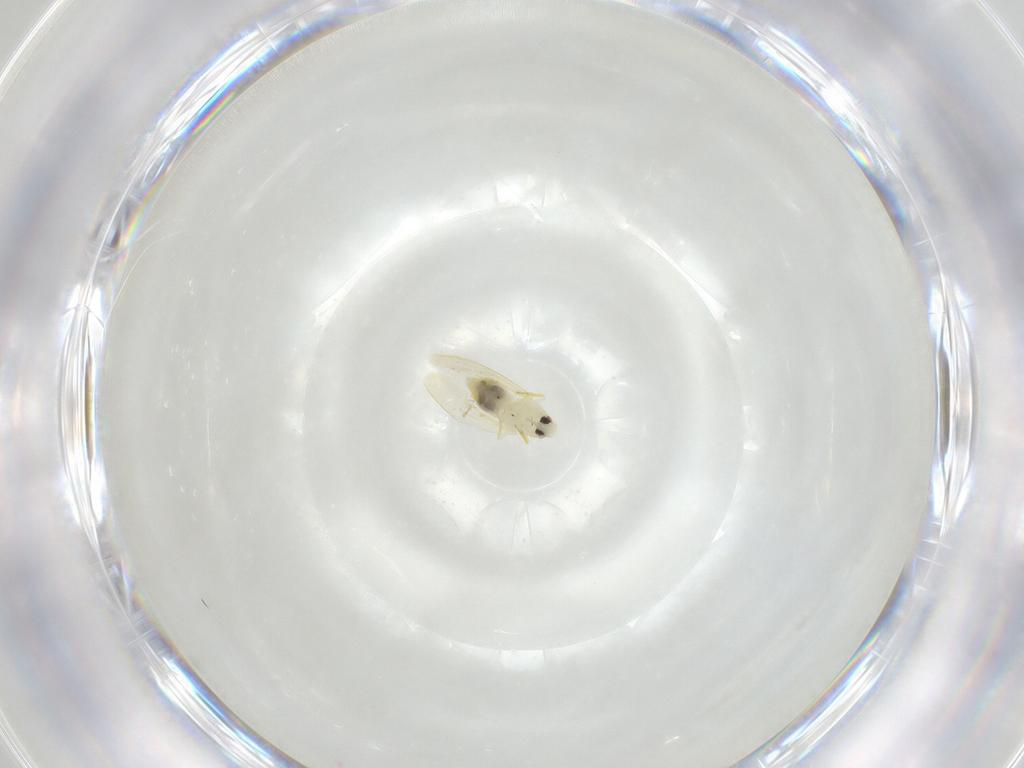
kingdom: Animalia
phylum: Arthropoda
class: Insecta
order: Hemiptera
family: Aleyrodidae
